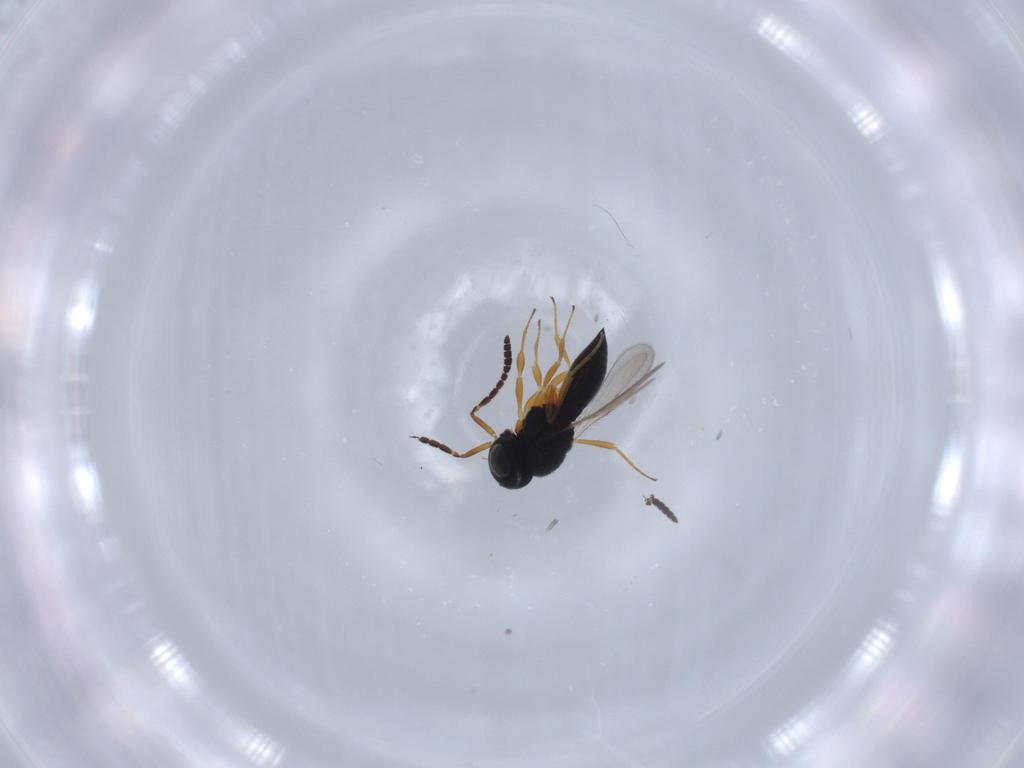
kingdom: Animalia
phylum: Arthropoda
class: Insecta
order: Hymenoptera
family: Scelionidae
